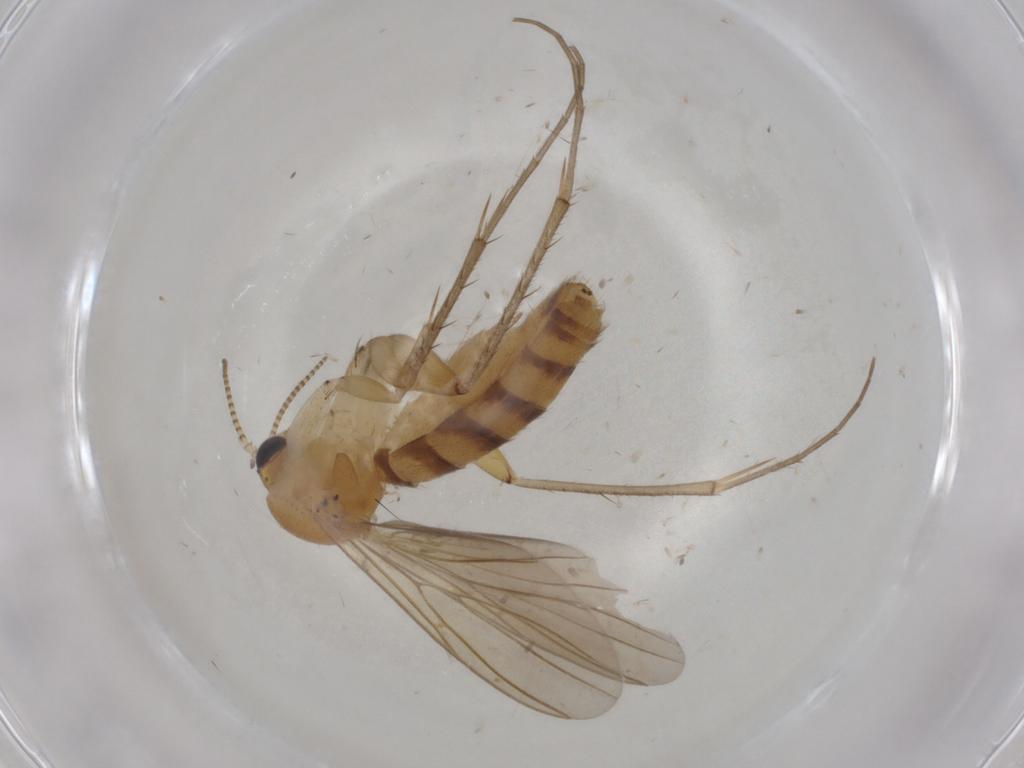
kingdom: Animalia
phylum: Arthropoda
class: Insecta
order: Diptera
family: Mycetophilidae
